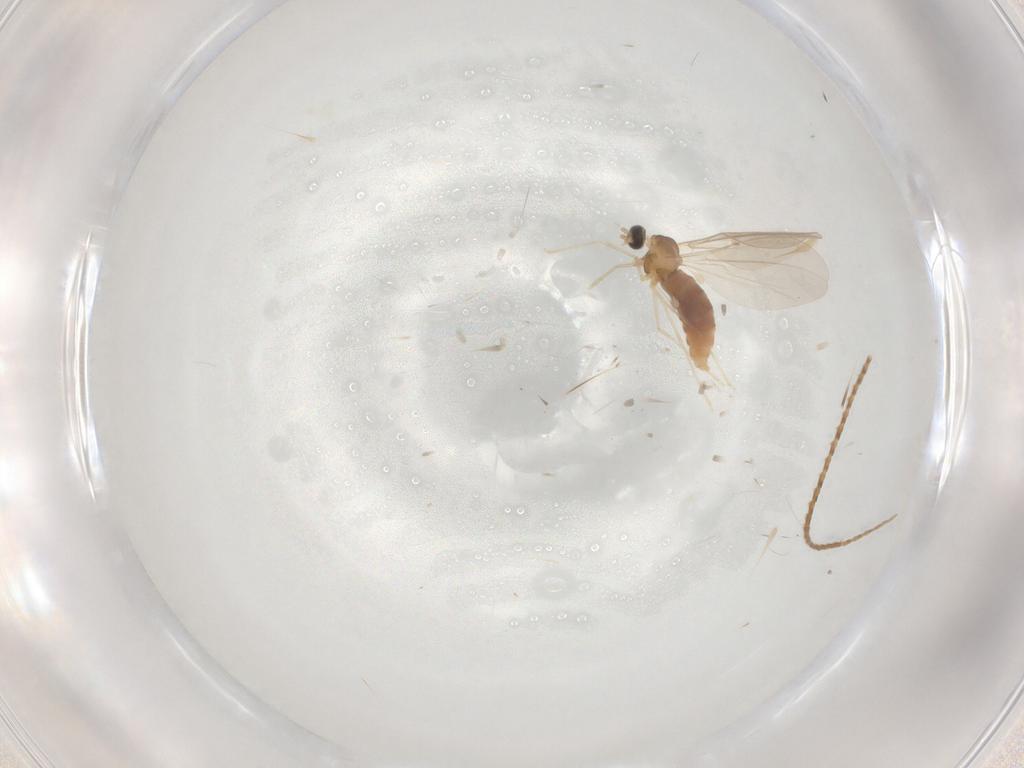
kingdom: Animalia
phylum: Arthropoda
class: Insecta
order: Diptera
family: Cecidomyiidae
